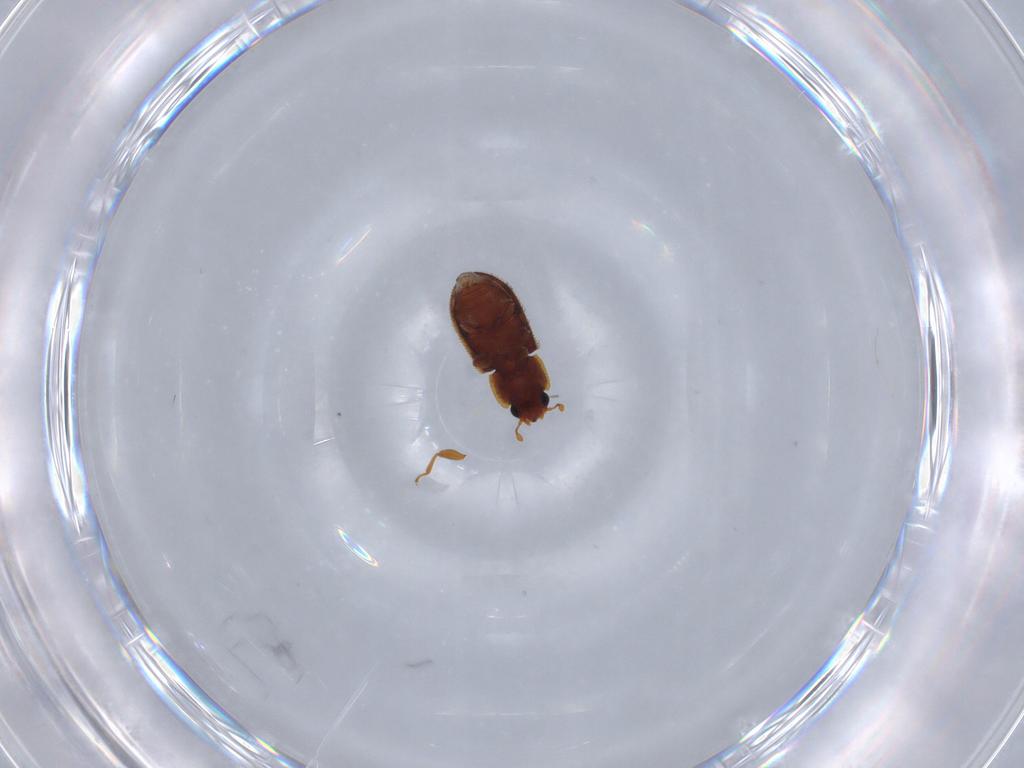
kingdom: Animalia
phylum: Arthropoda
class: Insecta
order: Coleoptera
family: Zopheridae
